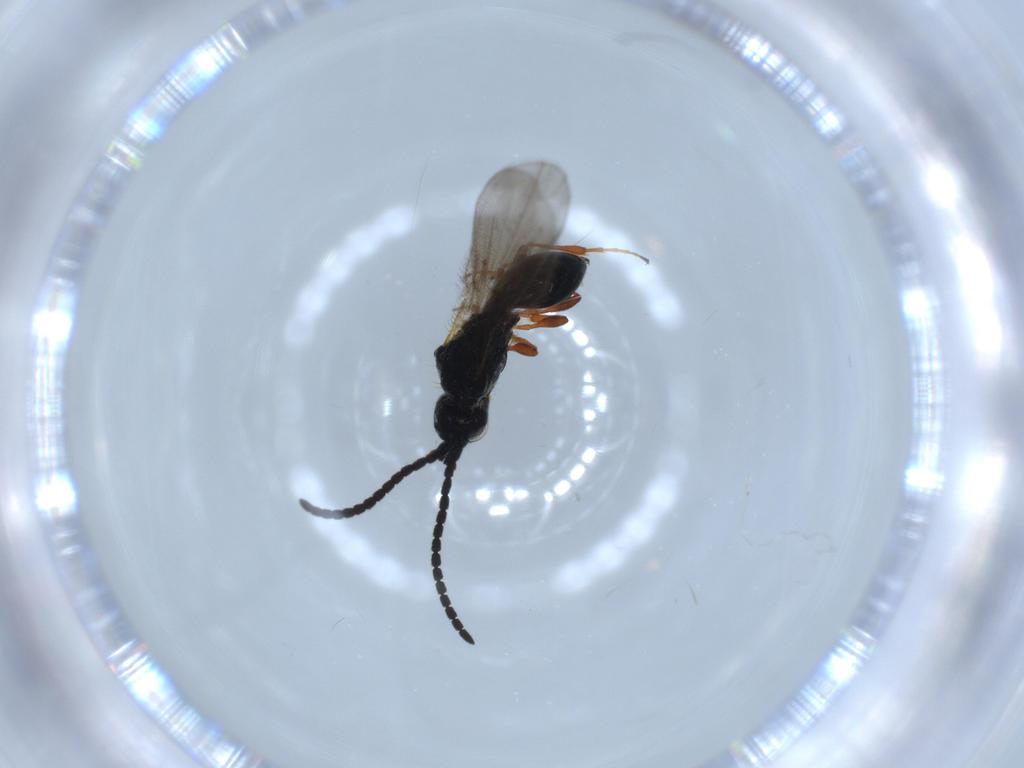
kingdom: Animalia
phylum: Arthropoda
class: Insecta
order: Hymenoptera
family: Diapriidae
